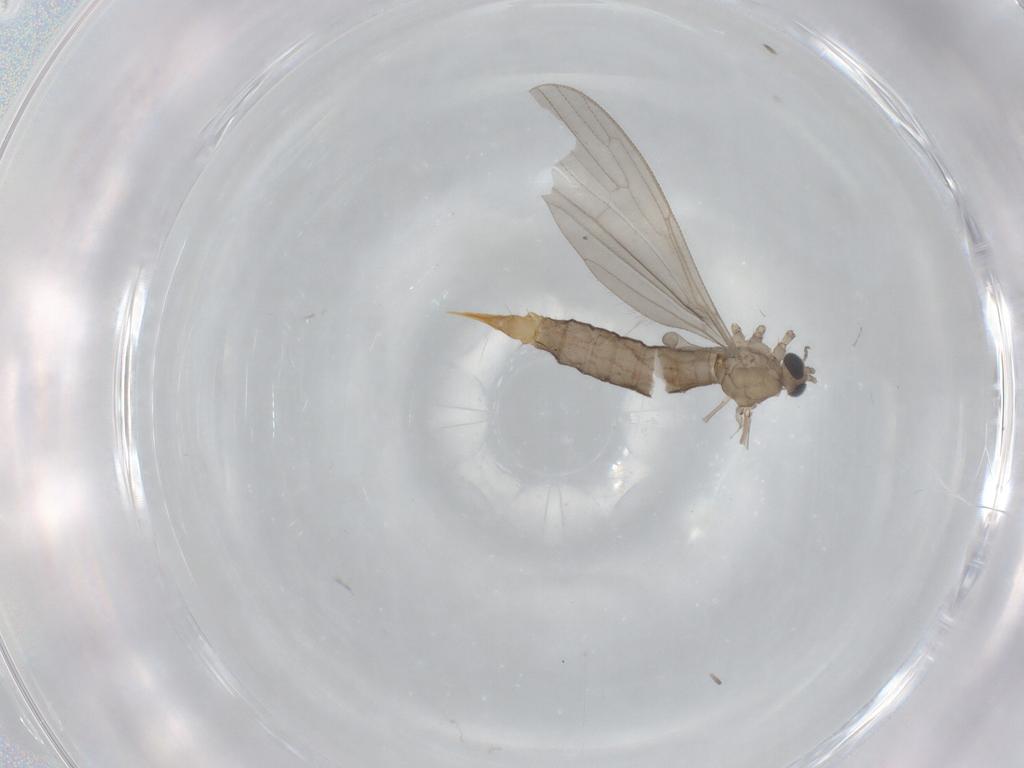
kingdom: Animalia
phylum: Arthropoda
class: Insecta
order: Diptera
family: Limoniidae
